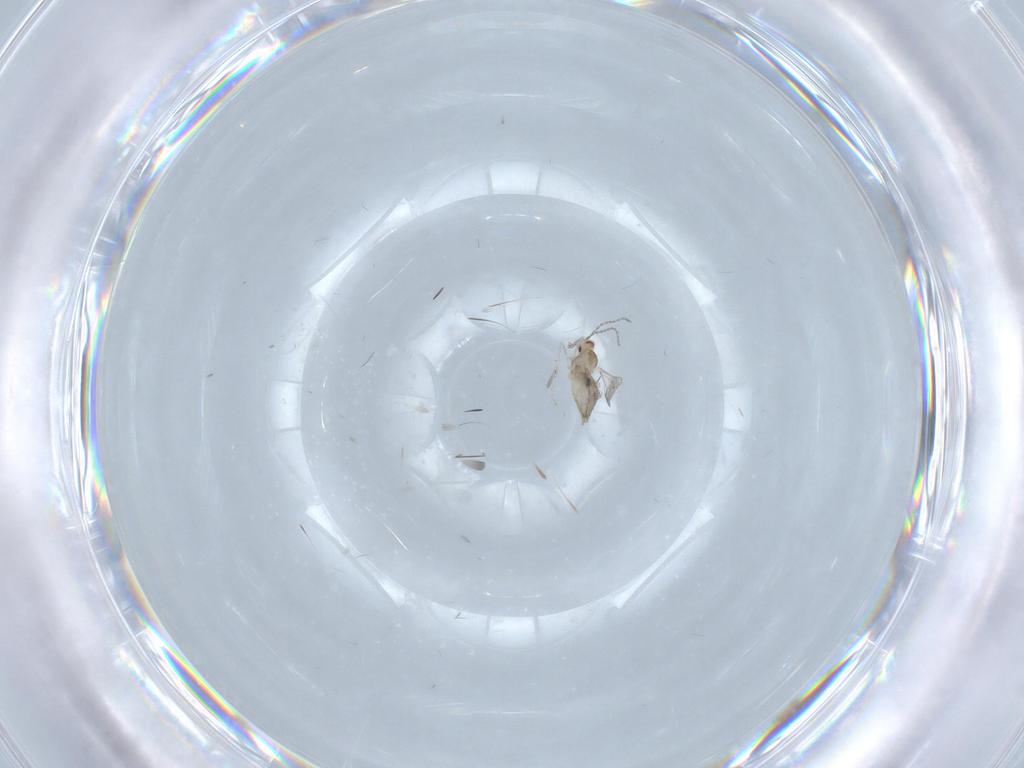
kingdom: Animalia
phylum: Arthropoda
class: Insecta
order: Diptera
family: Cecidomyiidae
